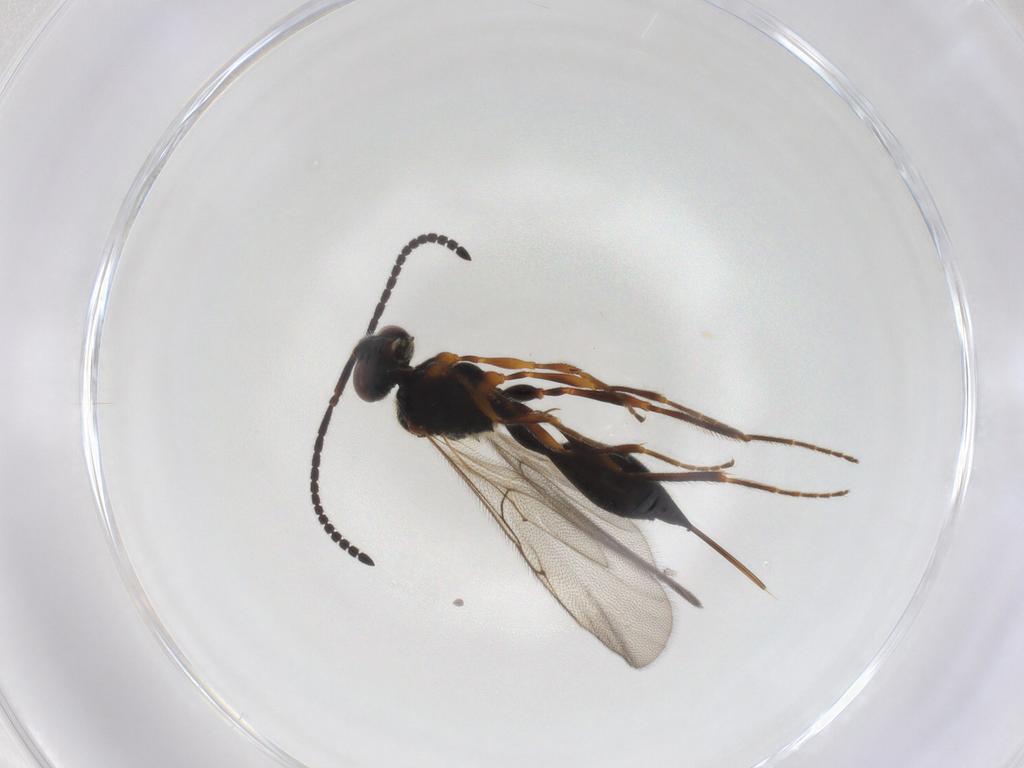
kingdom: Animalia
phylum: Arthropoda
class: Insecta
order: Hymenoptera
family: Diapriidae
